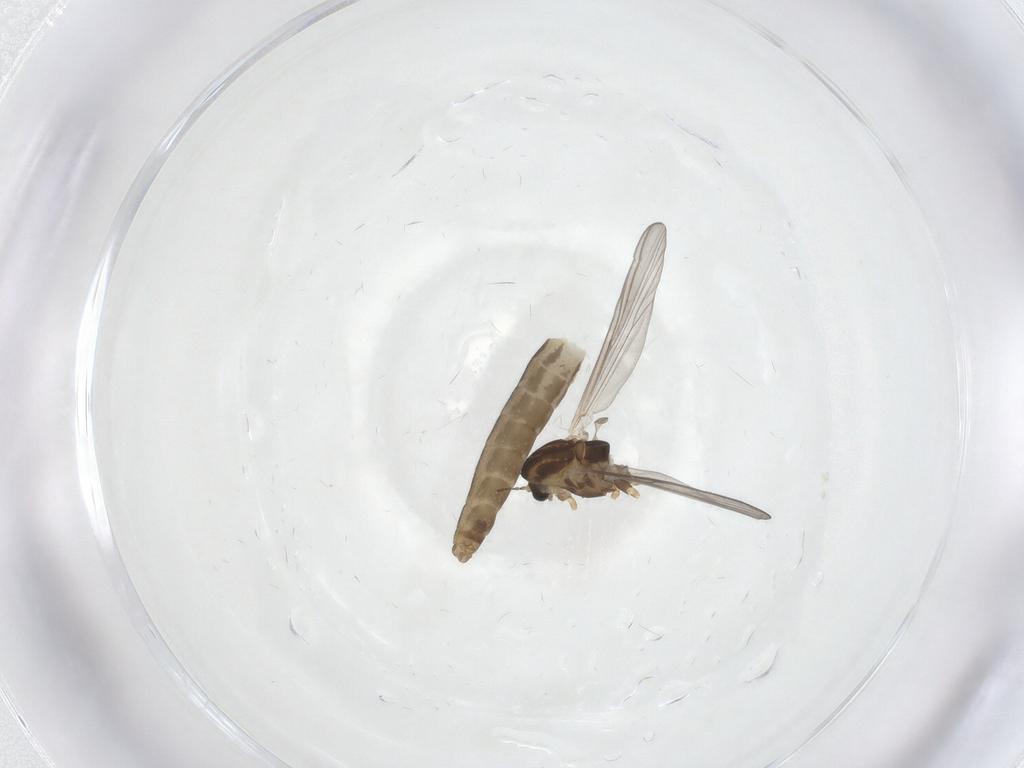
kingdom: Animalia
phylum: Arthropoda
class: Insecta
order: Diptera
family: Chironomidae
